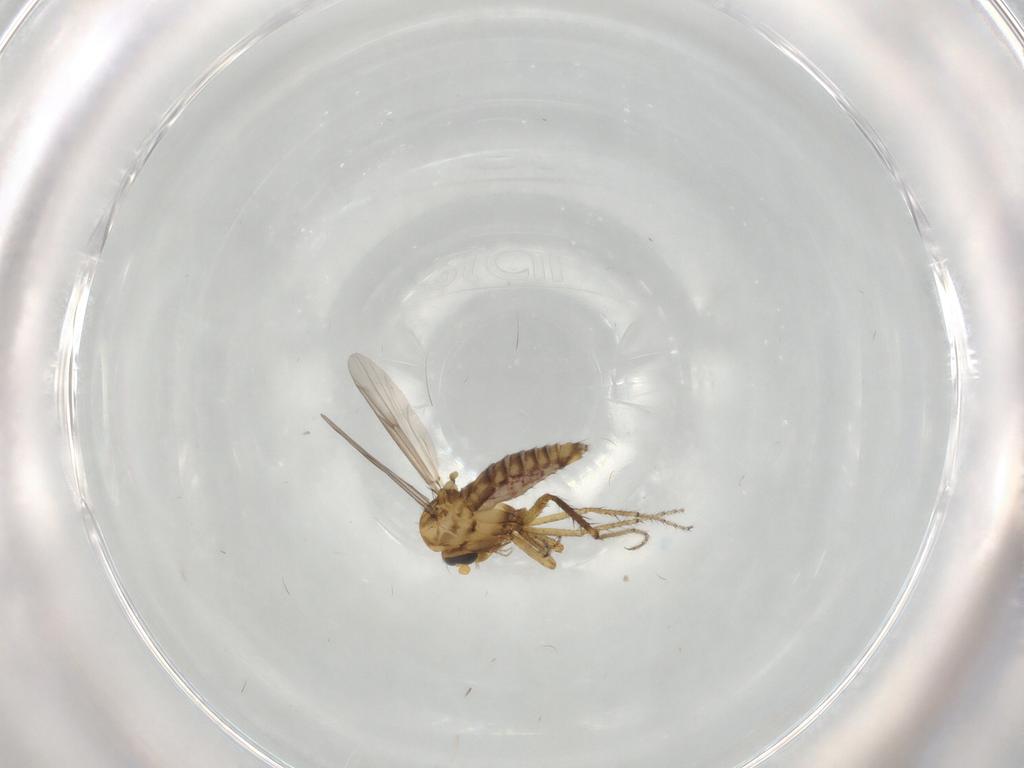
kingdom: Animalia
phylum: Arthropoda
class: Insecta
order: Diptera
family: Ceratopogonidae
